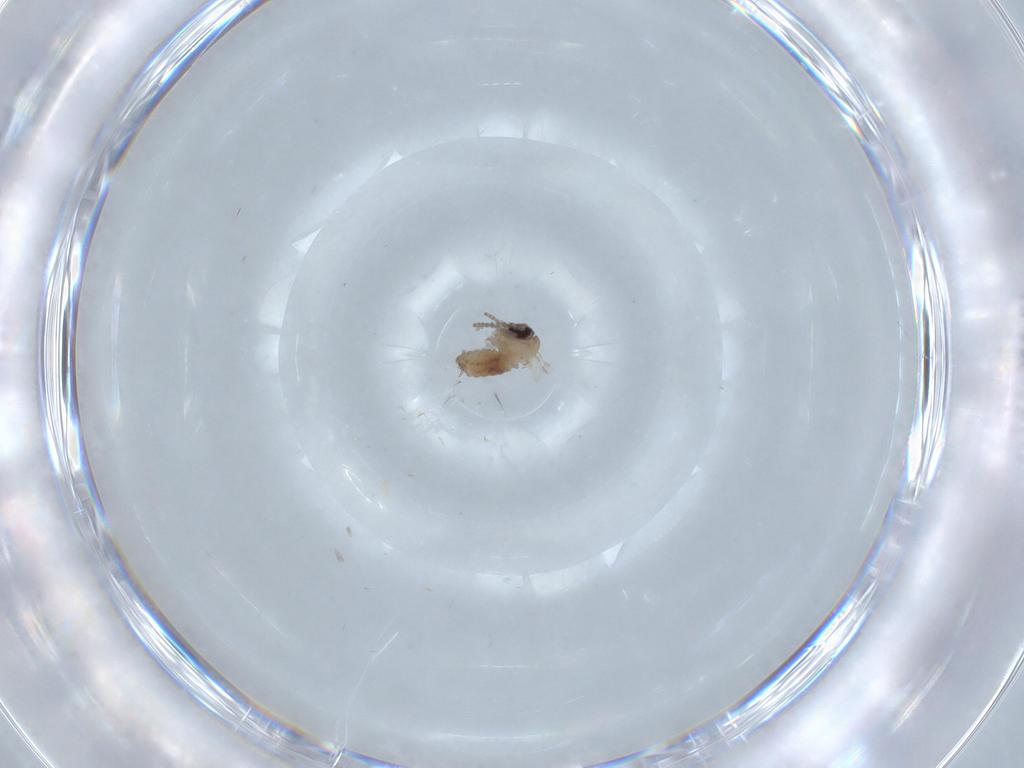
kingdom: Animalia
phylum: Arthropoda
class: Insecta
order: Diptera
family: Psychodidae
